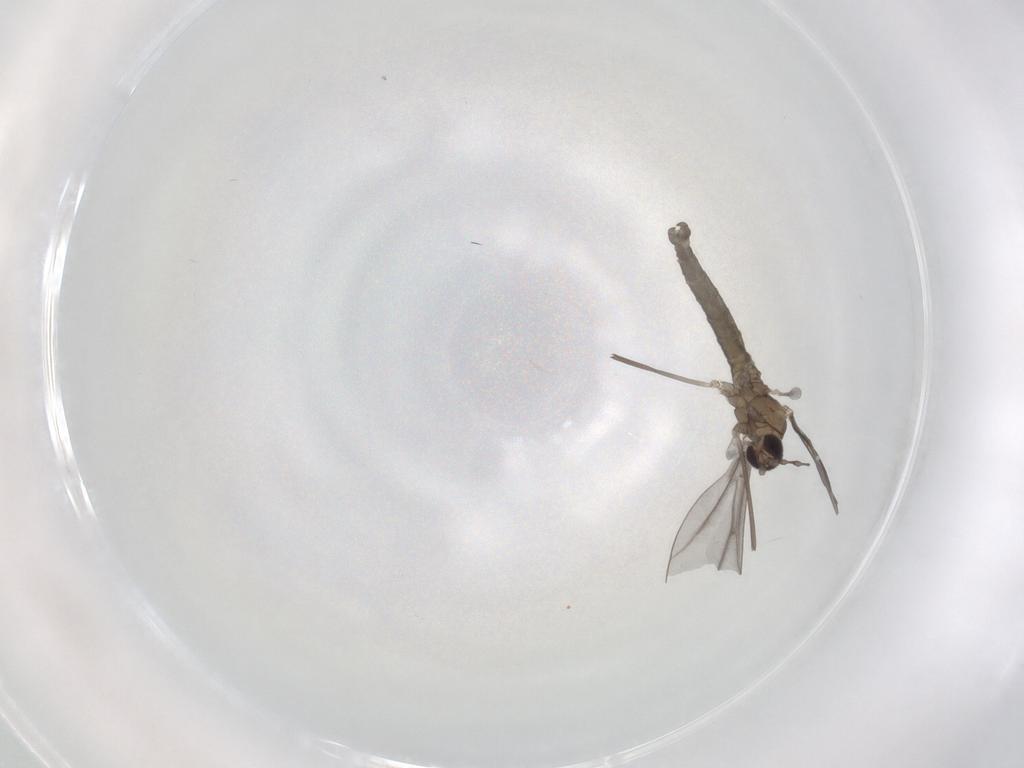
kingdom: Animalia
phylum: Arthropoda
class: Insecta
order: Diptera
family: Cecidomyiidae
